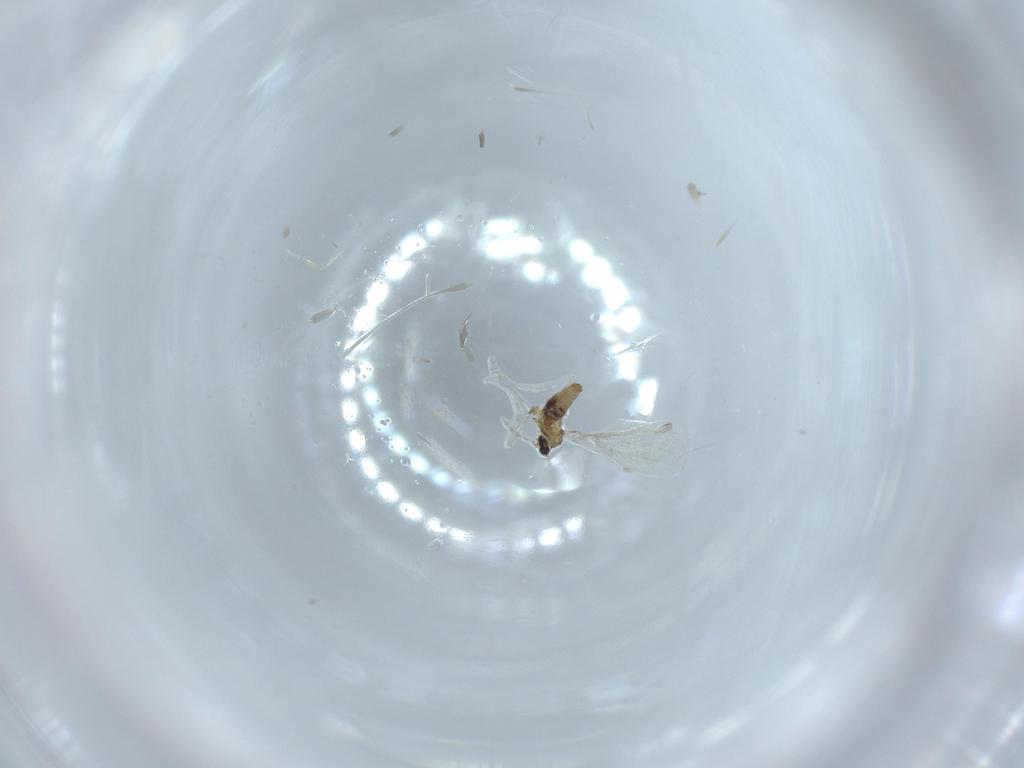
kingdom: Animalia
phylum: Arthropoda
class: Insecta
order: Diptera
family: Cecidomyiidae
